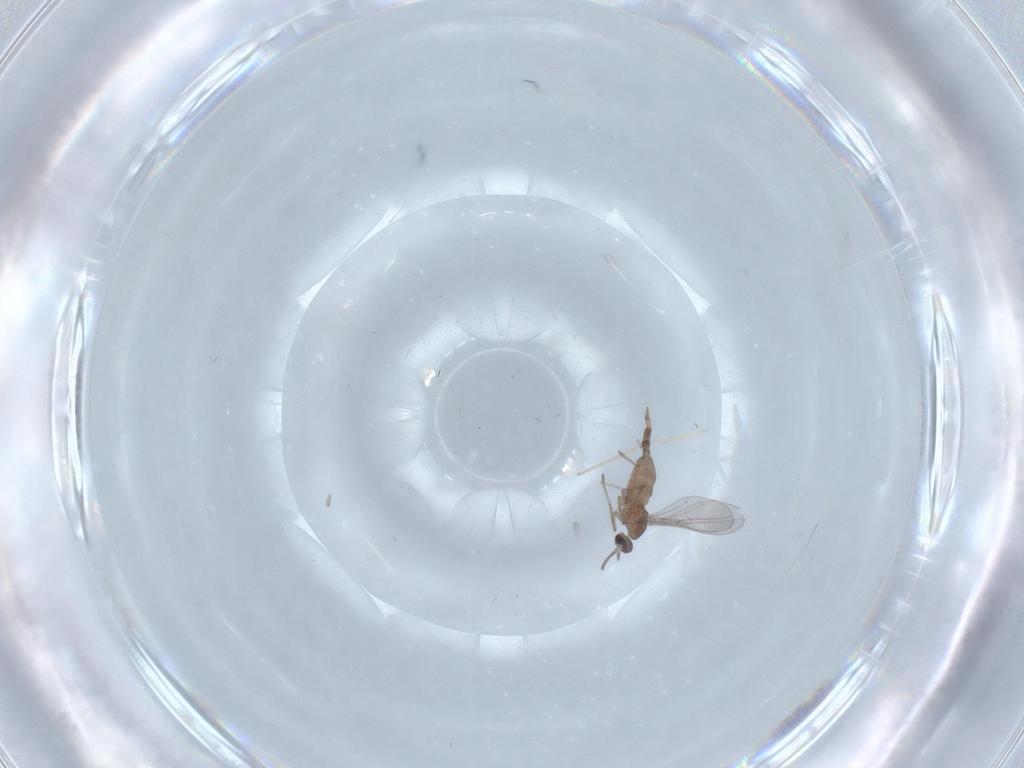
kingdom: Animalia
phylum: Arthropoda
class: Insecta
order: Diptera
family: Cecidomyiidae
